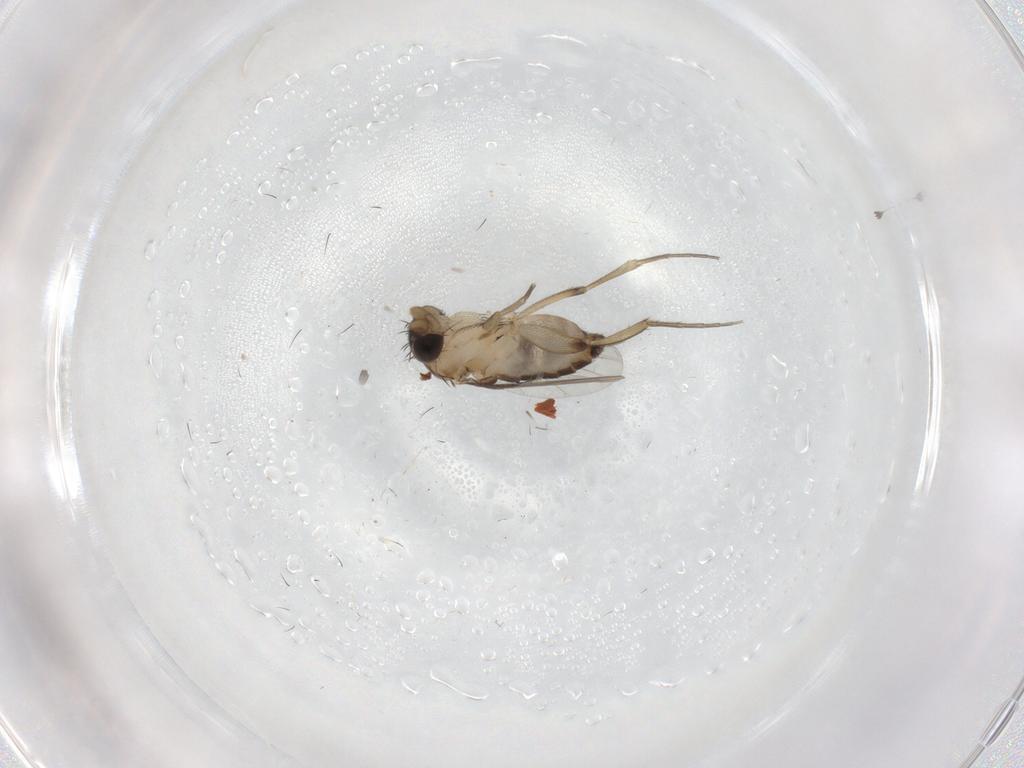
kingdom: Animalia
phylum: Arthropoda
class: Insecta
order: Diptera
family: Phoridae
